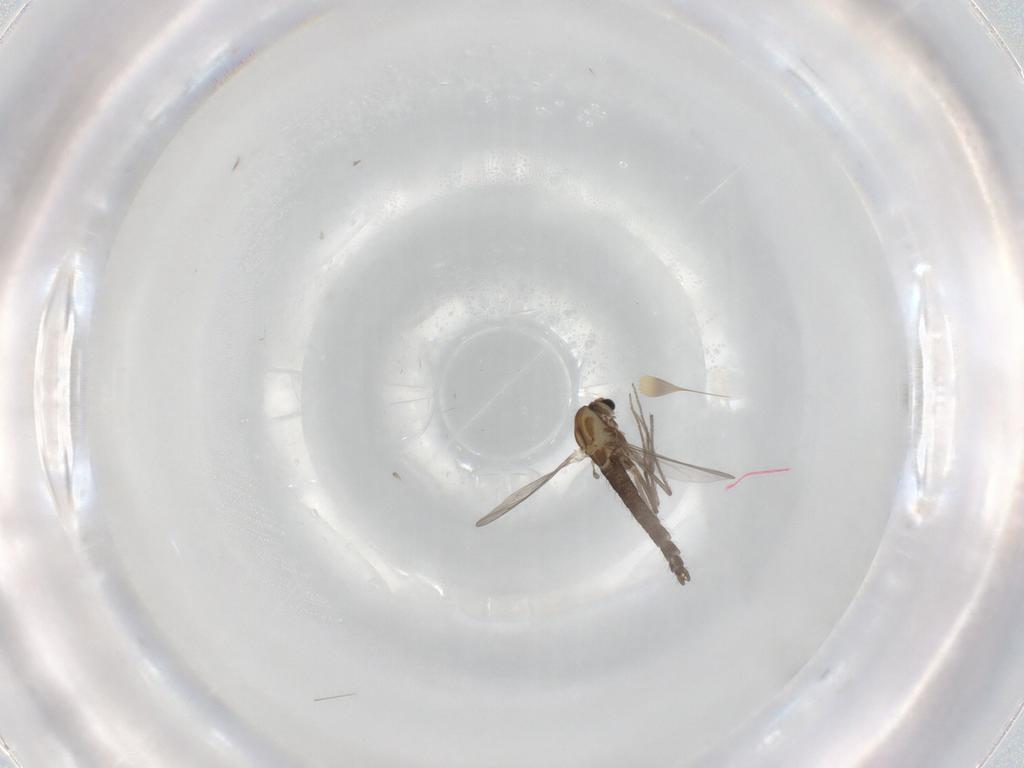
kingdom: Animalia
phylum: Arthropoda
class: Insecta
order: Diptera
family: Chironomidae
